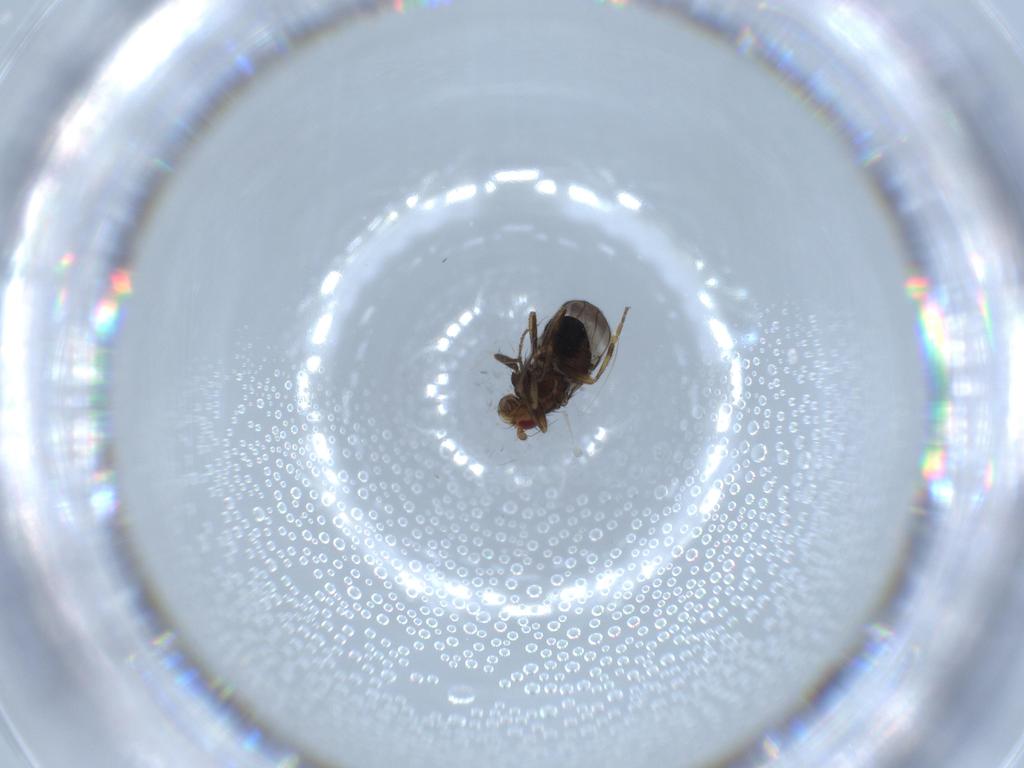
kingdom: Animalia
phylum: Arthropoda
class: Insecta
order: Diptera
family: Sphaeroceridae
